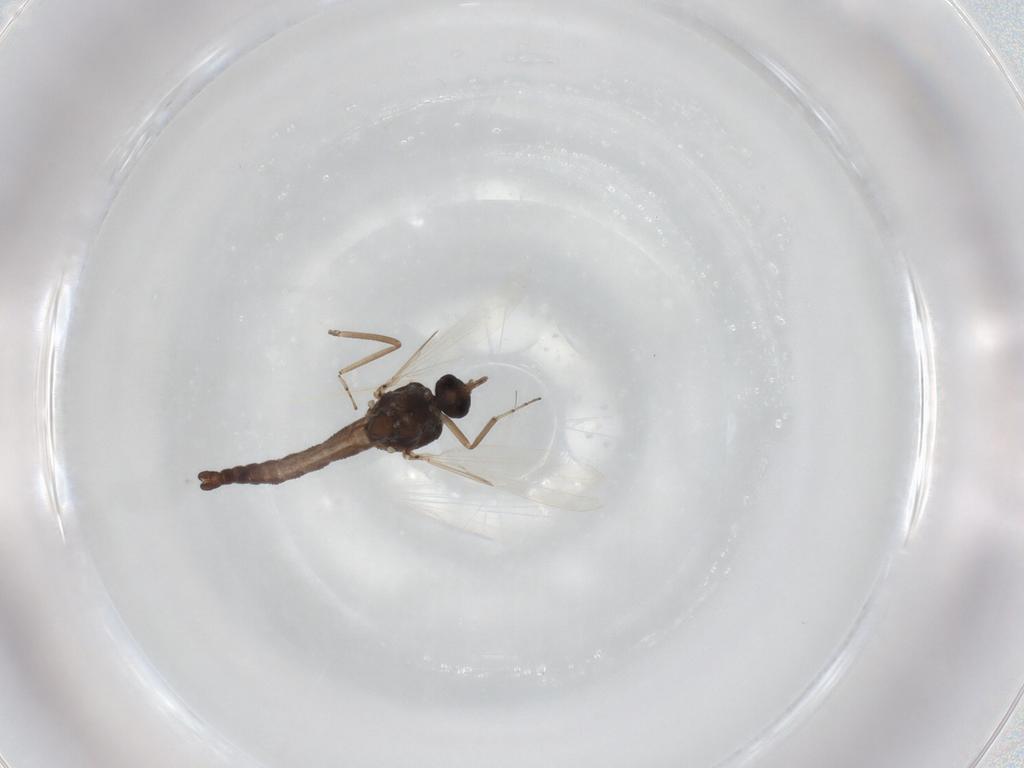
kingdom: Animalia
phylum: Arthropoda
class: Insecta
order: Diptera
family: Ceratopogonidae
